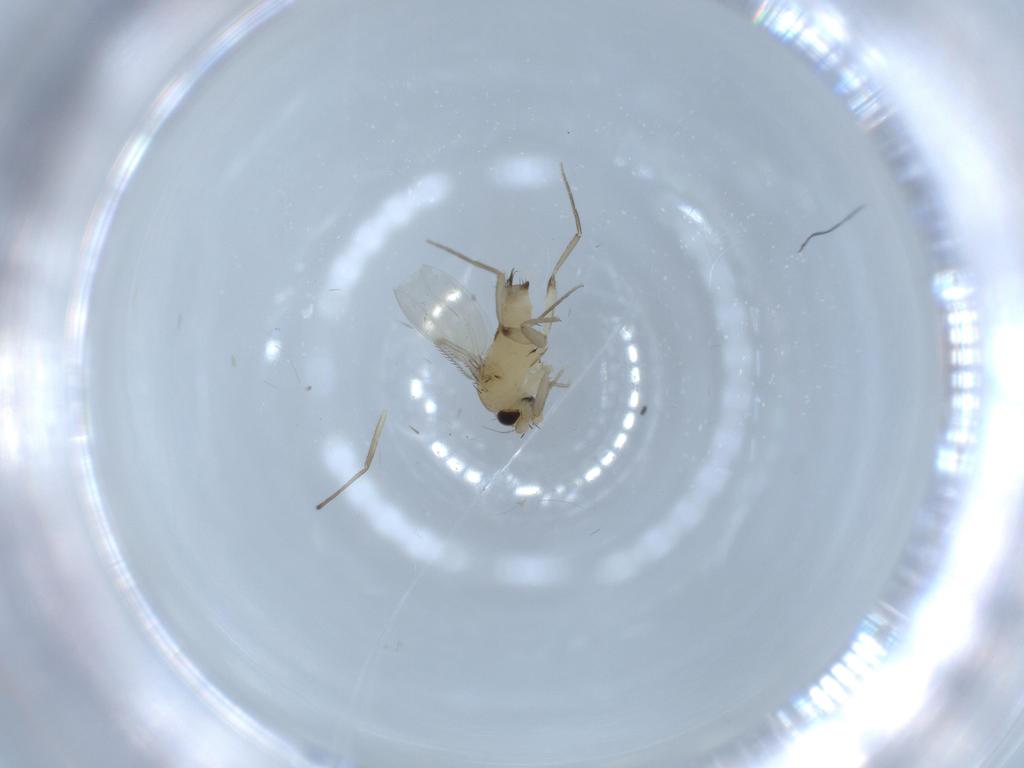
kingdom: Animalia
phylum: Arthropoda
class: Insecta
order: Diptera
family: Phoridae
